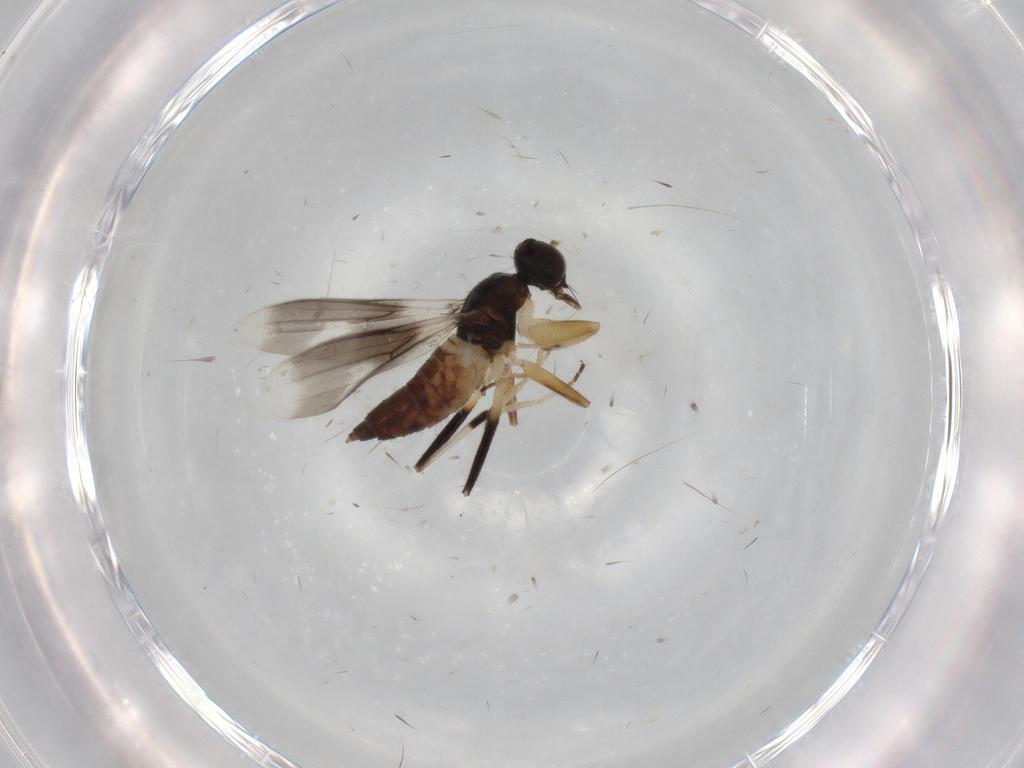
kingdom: Animalia
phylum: Arthropoda
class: Insecta
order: Diptera
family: Hybotidae
